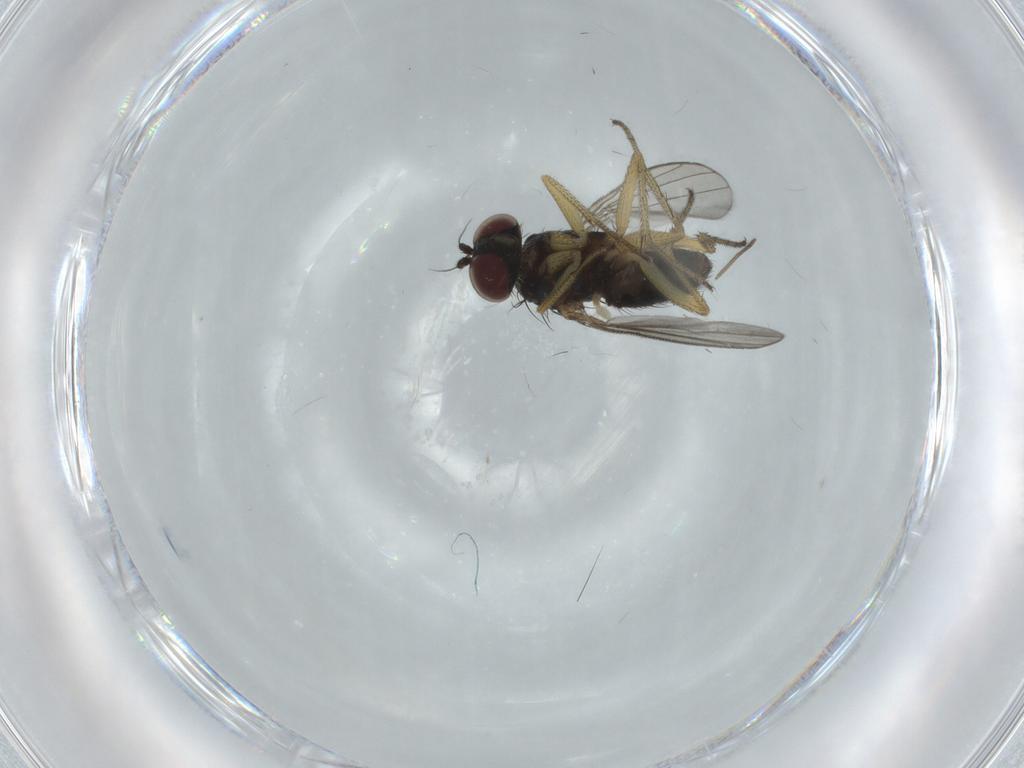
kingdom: Animalia
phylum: Arthropoda
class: Insecta
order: Diptera
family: Dolichopodidae
